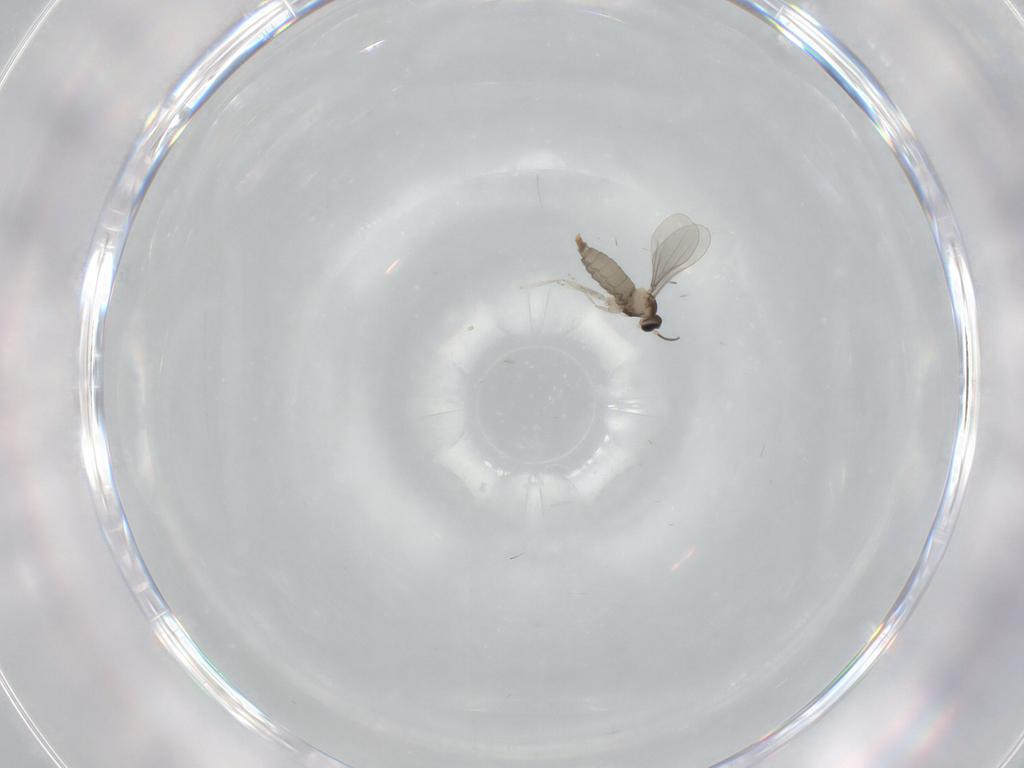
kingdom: Animalia
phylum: Arthropoda
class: Insecta
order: Diptera
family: Cecidomyiidae
